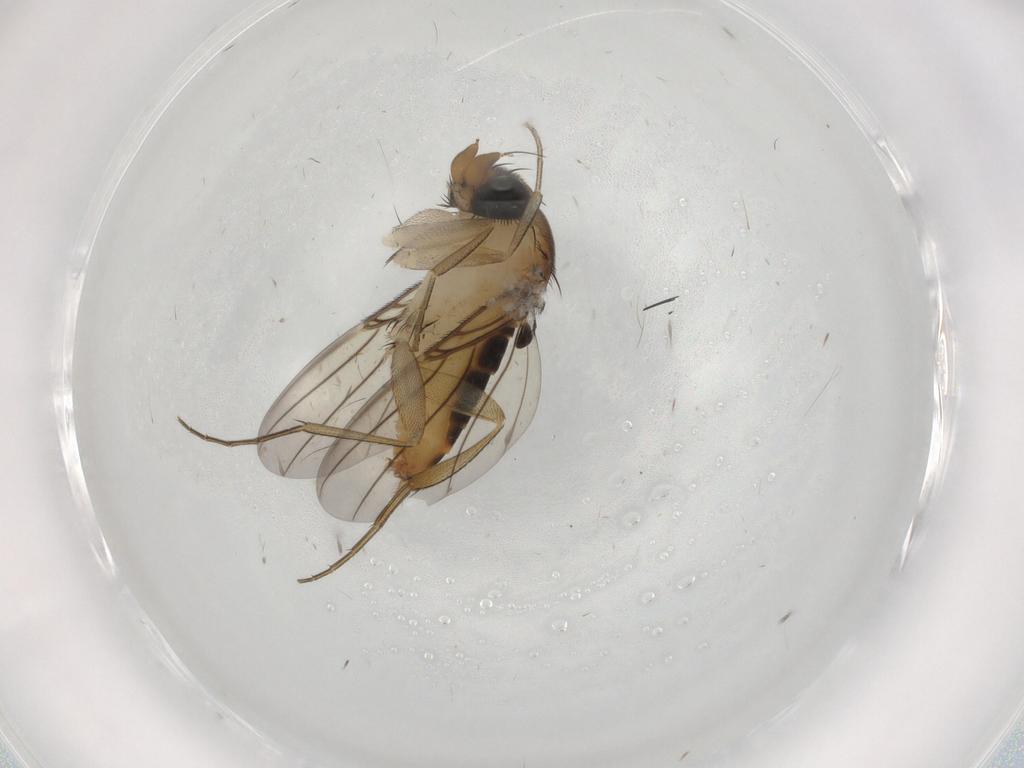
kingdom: Animalia
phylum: Arthropoda
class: Insecta
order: Diptera
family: Phoridae
